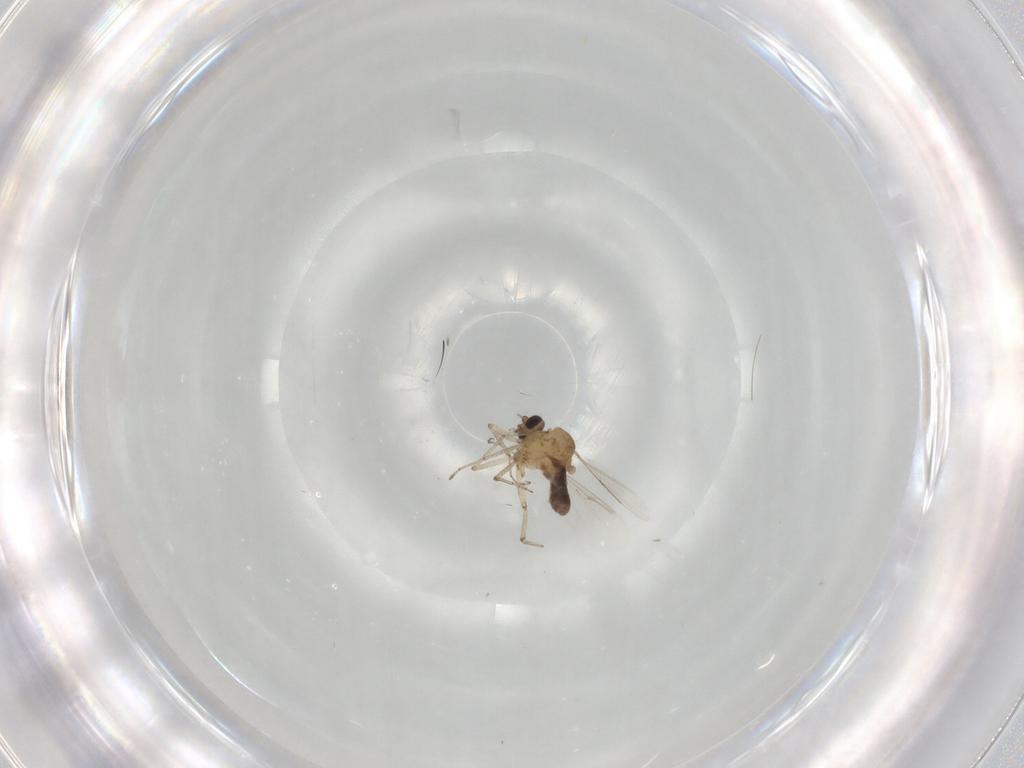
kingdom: Animalia
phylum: Arthropoda
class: Insecta
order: Diptera
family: Ceratopogonidae
